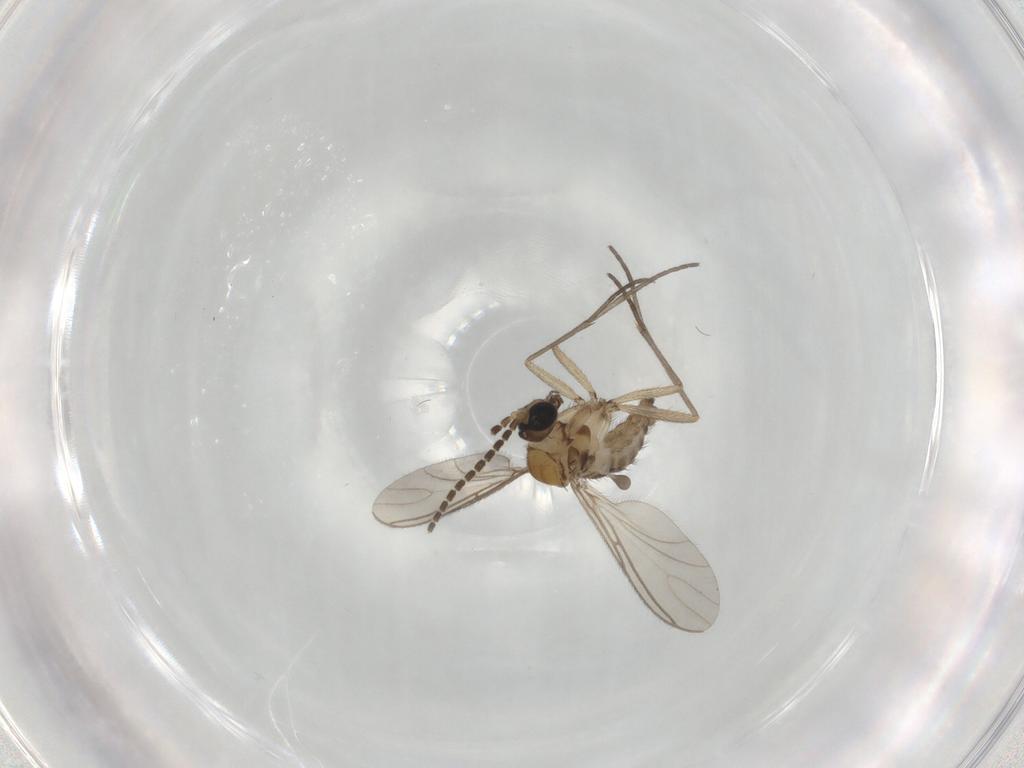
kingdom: Animalia
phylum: Arthropoda
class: Insecta
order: Diptera
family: Sciaridae
